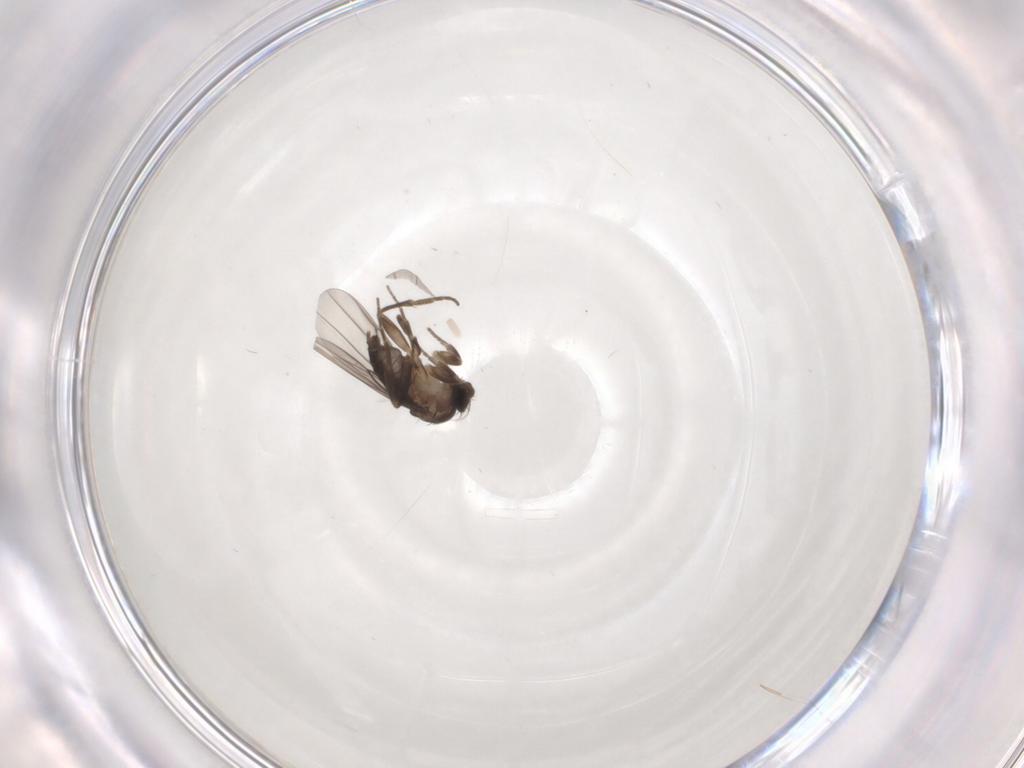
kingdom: Animalia
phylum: Arthropoda
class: Insecta
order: Diptera
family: Phoridae
